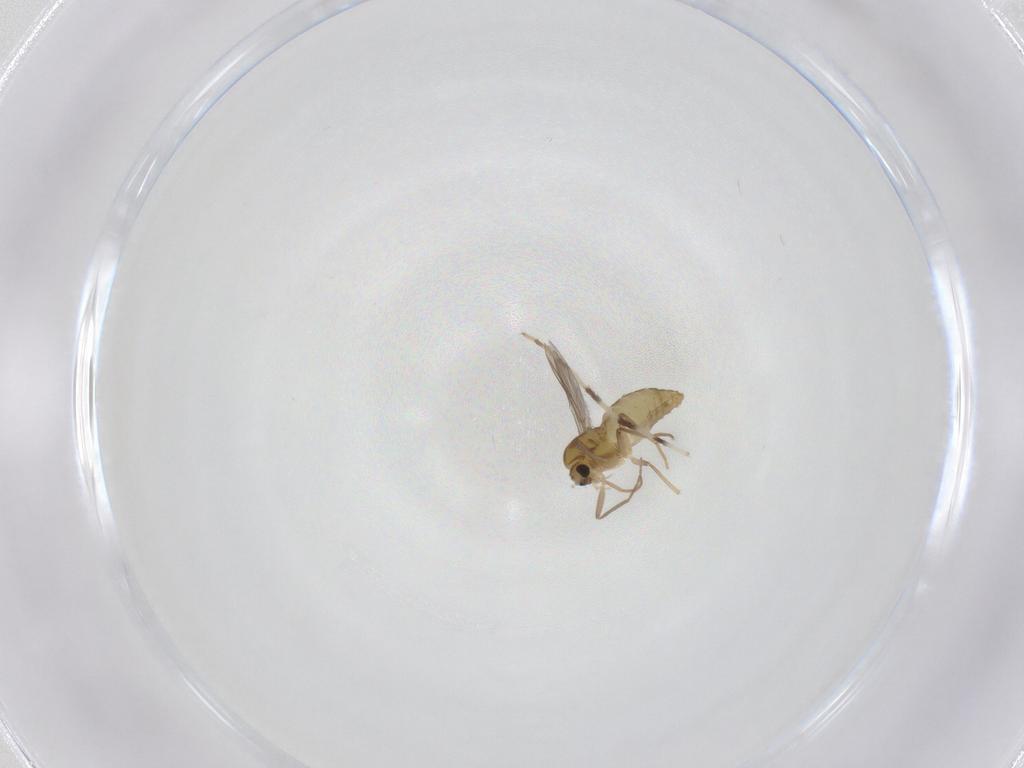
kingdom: Animalia
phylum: Arthropoda
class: Insecta
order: Diptera
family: Chironomidae
